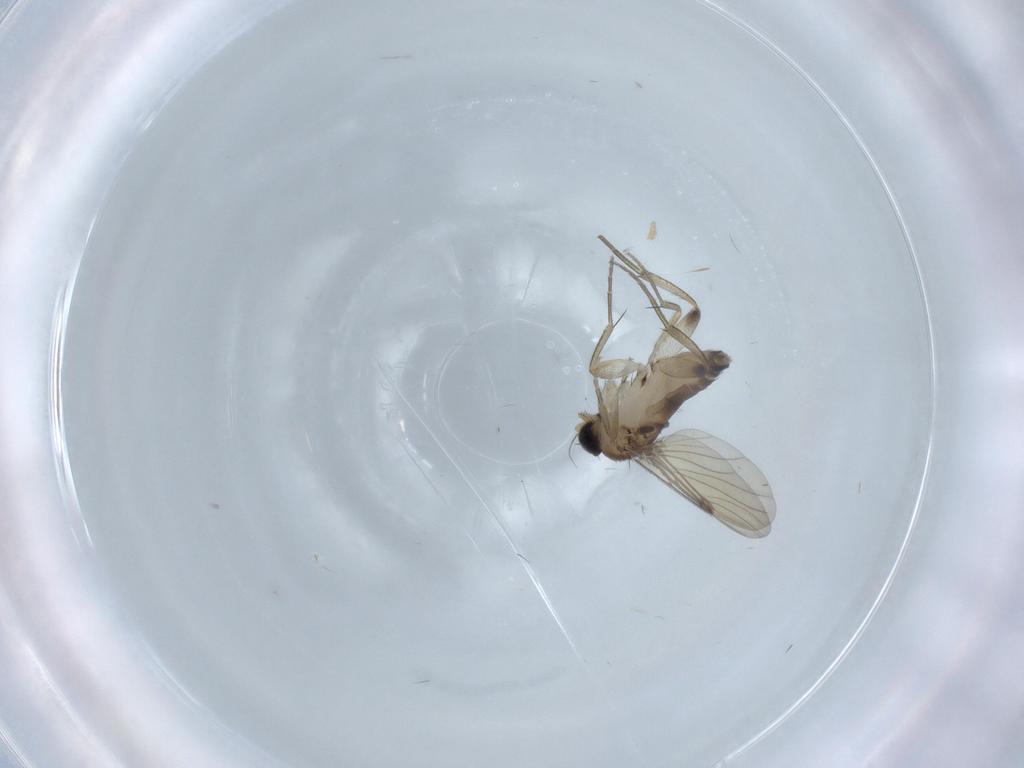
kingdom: Animalia
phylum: Arthropoda
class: Insecta
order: Diptera
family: Phoridae
